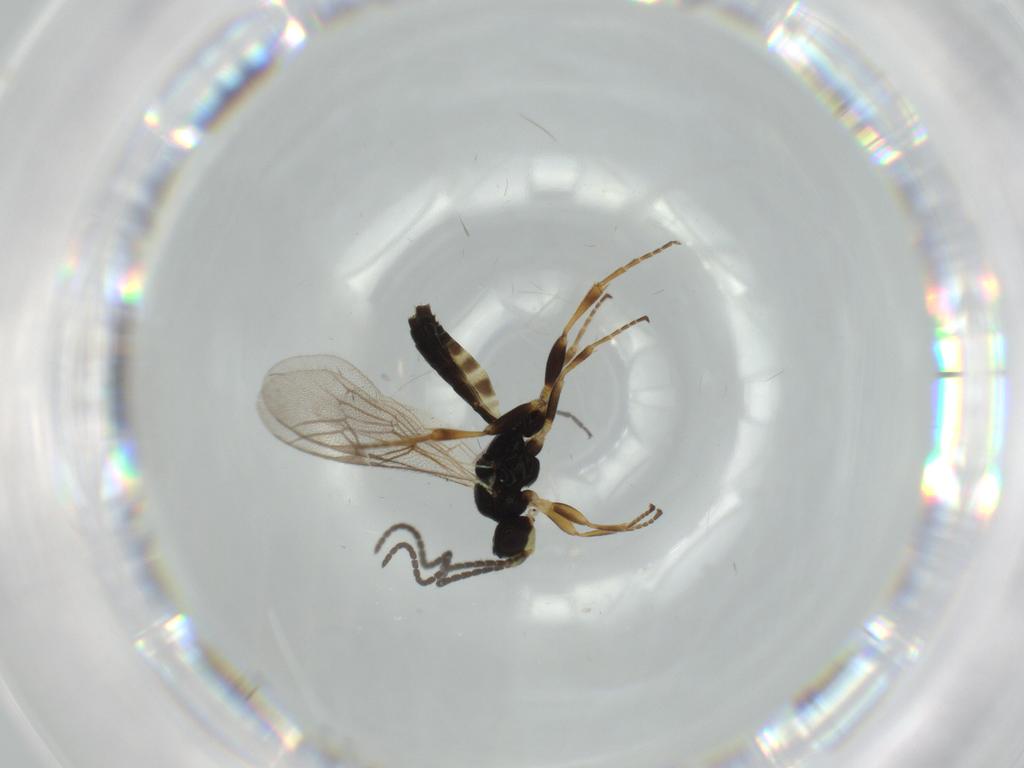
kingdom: Animalia
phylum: Arthropoda
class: Insecta
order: Hymenoptera
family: Ichneumonidae
